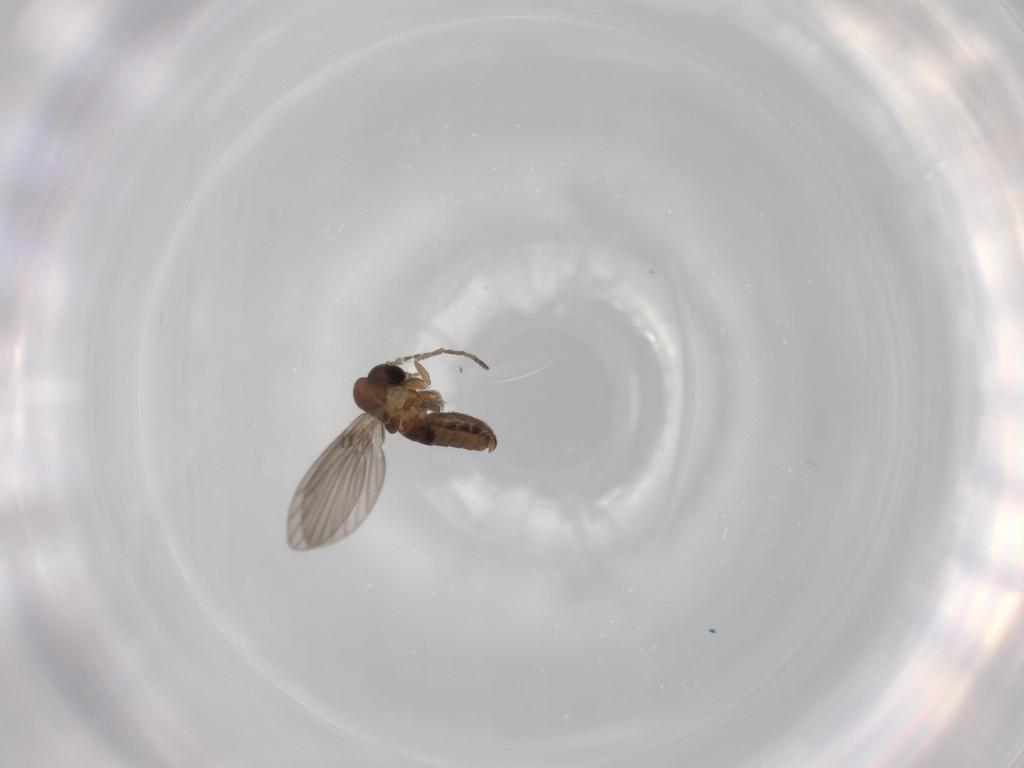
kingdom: Animalia
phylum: Arthropoda
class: Insecta
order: Diptera
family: Psychodidae
